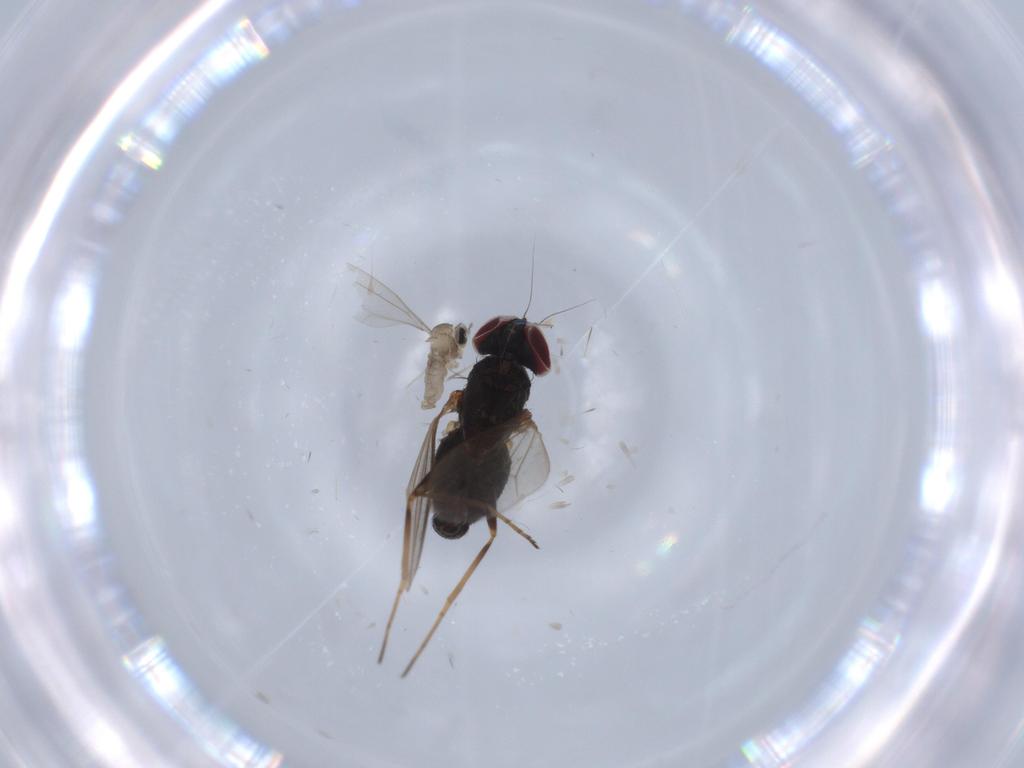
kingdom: Animalia
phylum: Arthropoda
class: Insecta
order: Diptera
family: Cecidomyiidae
